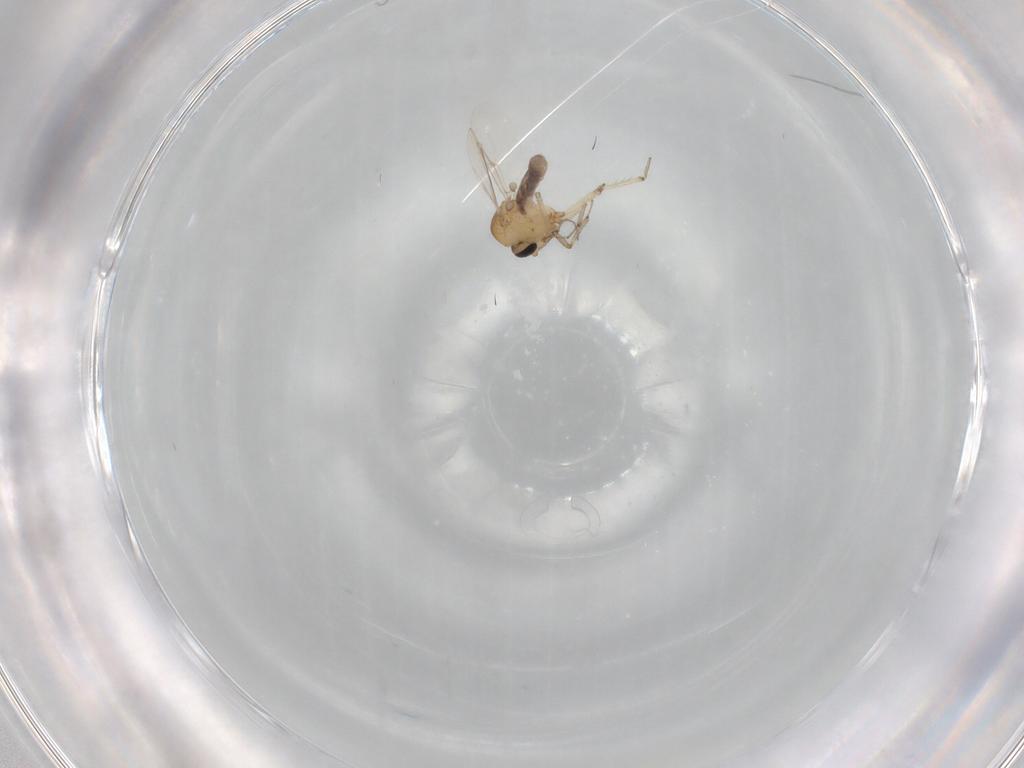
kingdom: Animalia
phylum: Arthropoda
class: Insecta
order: Diptera
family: Ceratopogonidae
